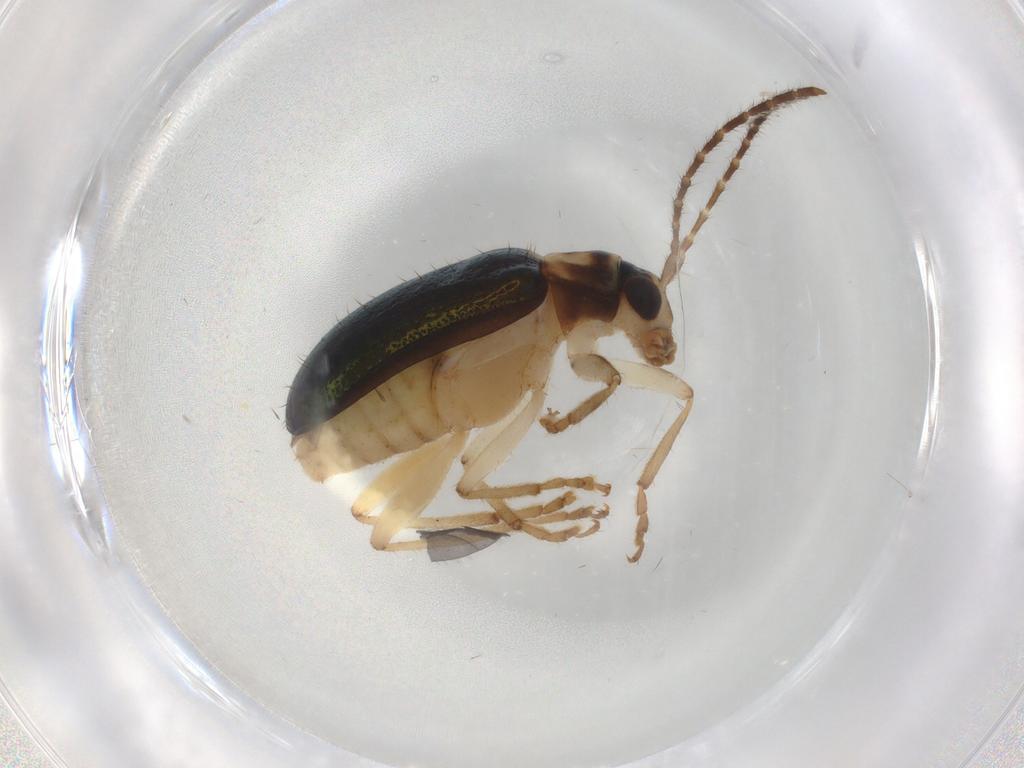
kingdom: Animalia
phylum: Arthropoda
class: Insecta
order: Coleoptera
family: Chrysomelidae
